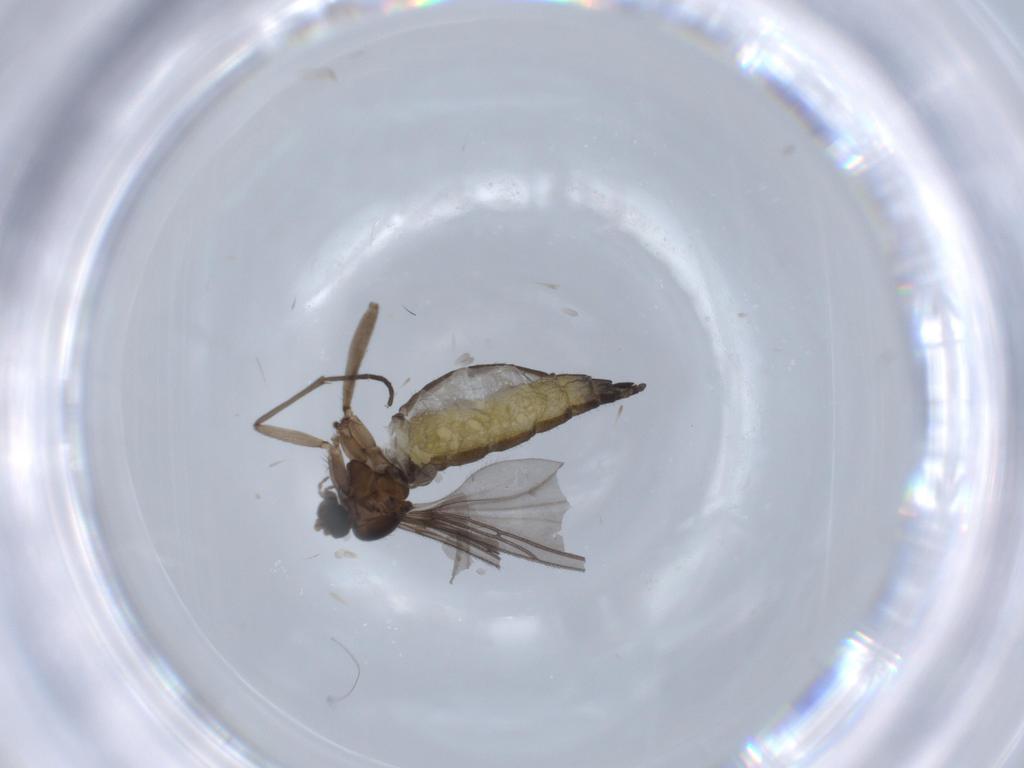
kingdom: Animalia
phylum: Arthropoda
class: Insecta
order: Diptera
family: Sciaridae
